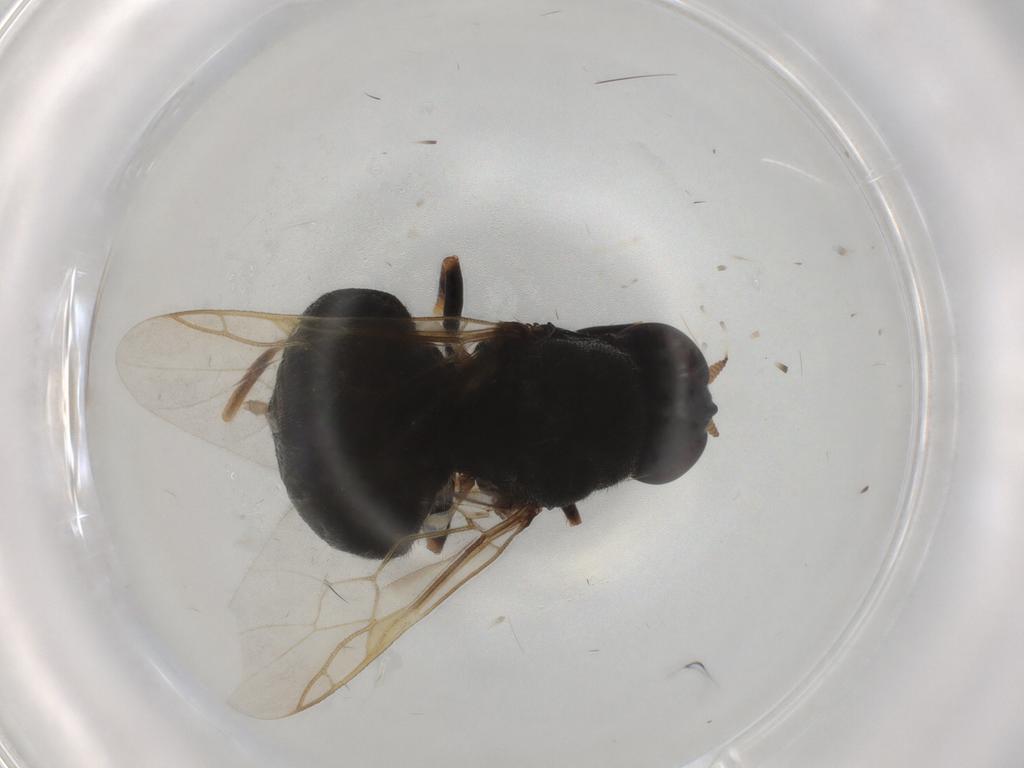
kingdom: Animalia
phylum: Arthropoda
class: Insecta
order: Diptera
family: Stratiomyidae
